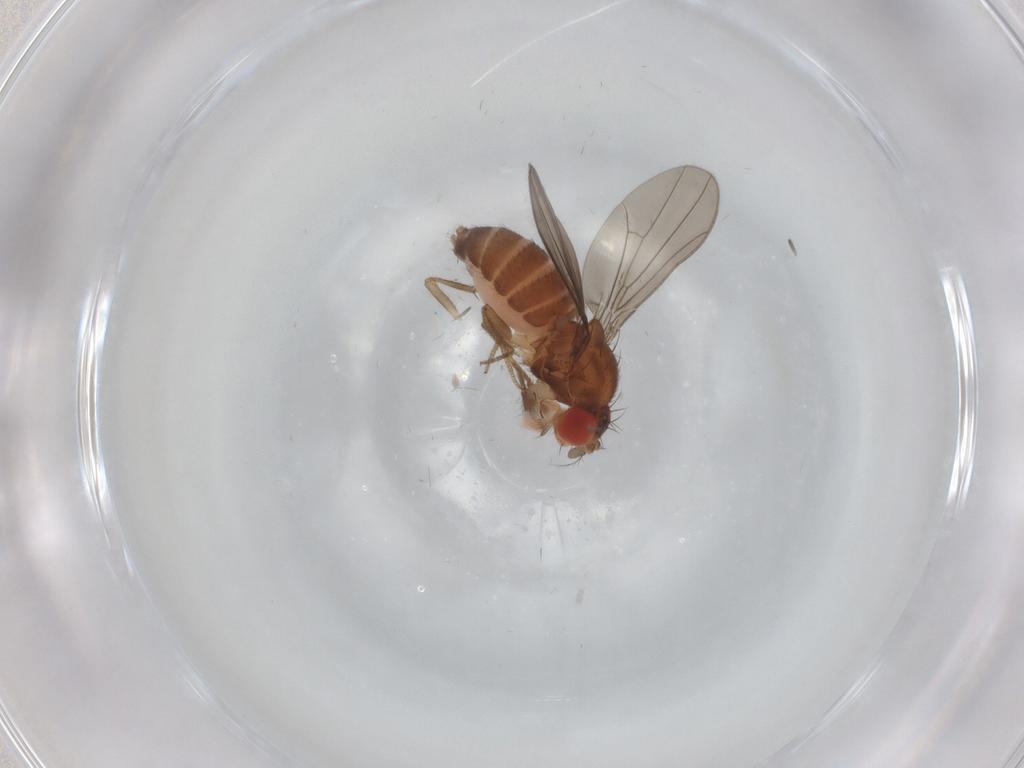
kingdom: Animalia
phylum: Arthropoda
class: Insecta
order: Diptera
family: Drosophilidae
